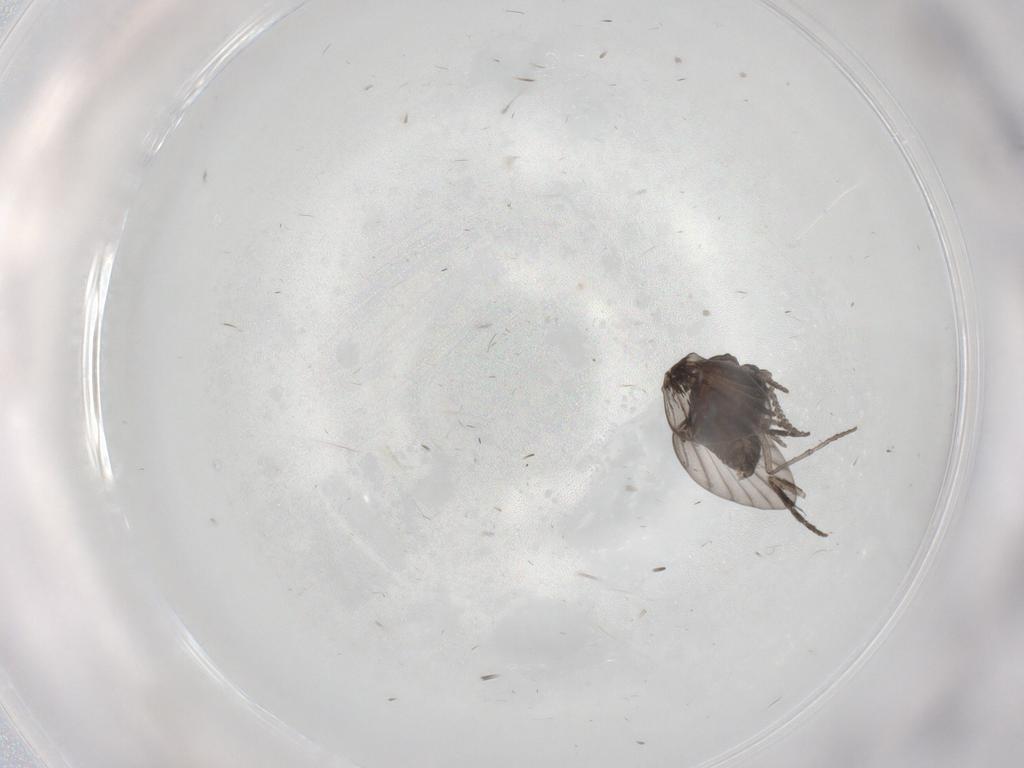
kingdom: Animalia
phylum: Arthropoda
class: Insecta
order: Diptera
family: Psychodidae
